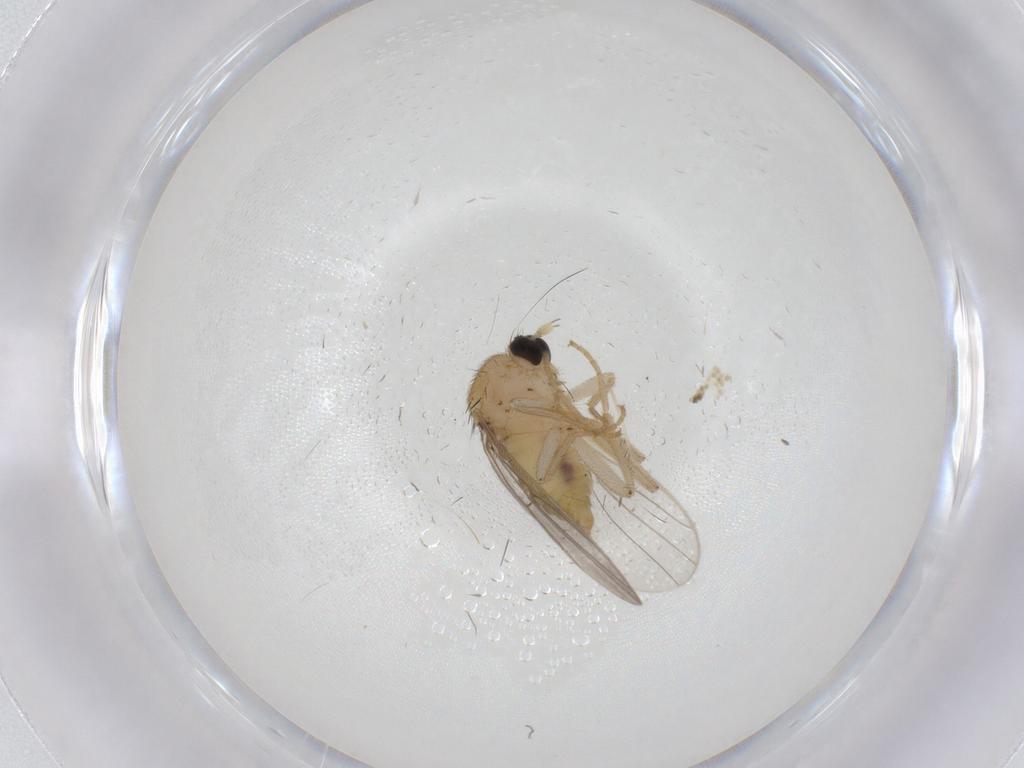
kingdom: Animalia
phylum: Arthropoda
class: Insecta
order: Diptera
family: Hybotidae
